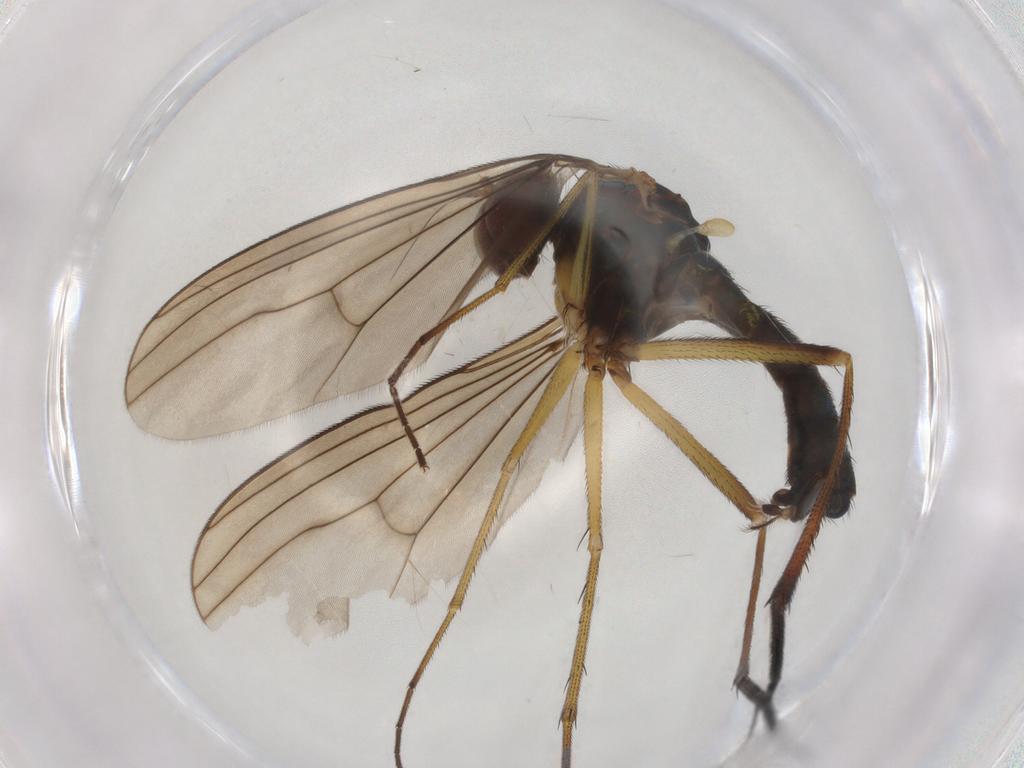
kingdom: Animalia
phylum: Arthropoda
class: Insecta
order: Diptera
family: Dolichopodidae
